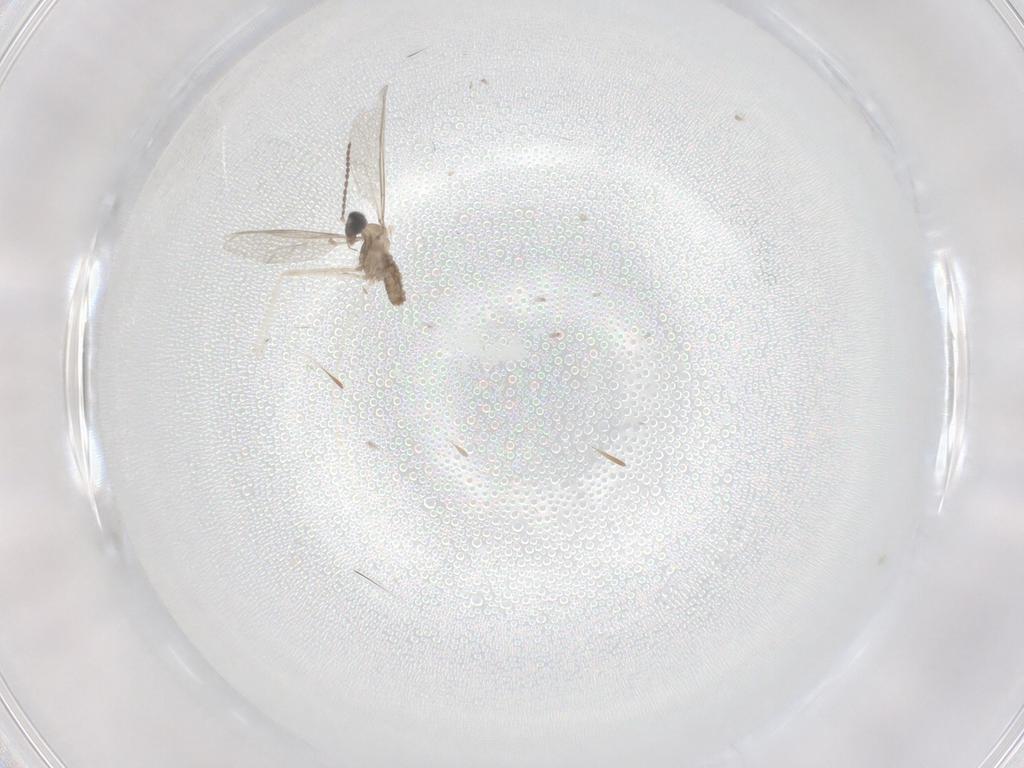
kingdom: Animalia
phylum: Arthropoda
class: Insecta
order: Diptera
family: Cecidomyiidae
